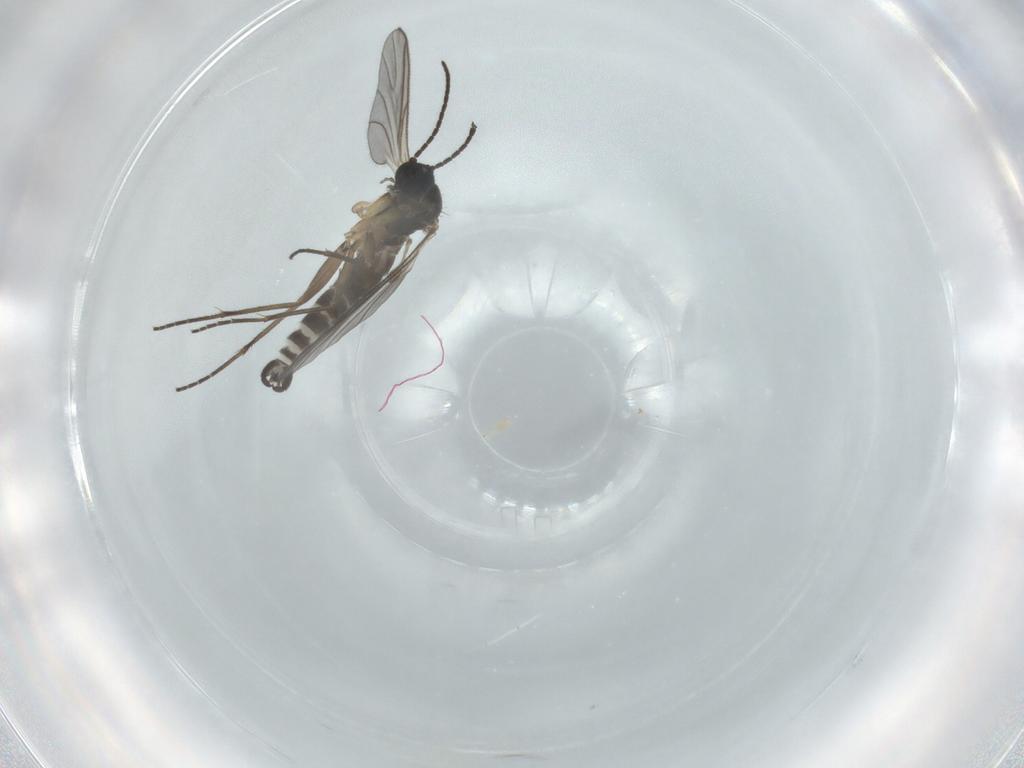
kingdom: Animalia
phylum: Arthropoda
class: Insecta
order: Diptera
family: Sciaridae
